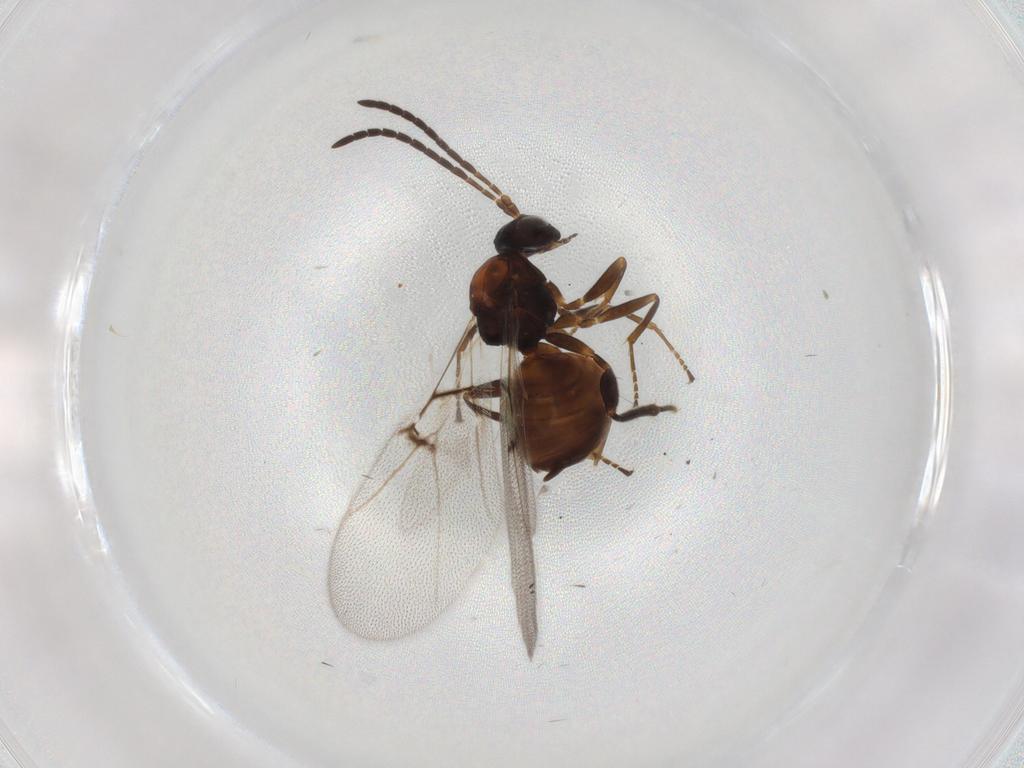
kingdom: Animalia
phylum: Arthropoda
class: Insecta
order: Hymenoptera
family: Cynipidae
